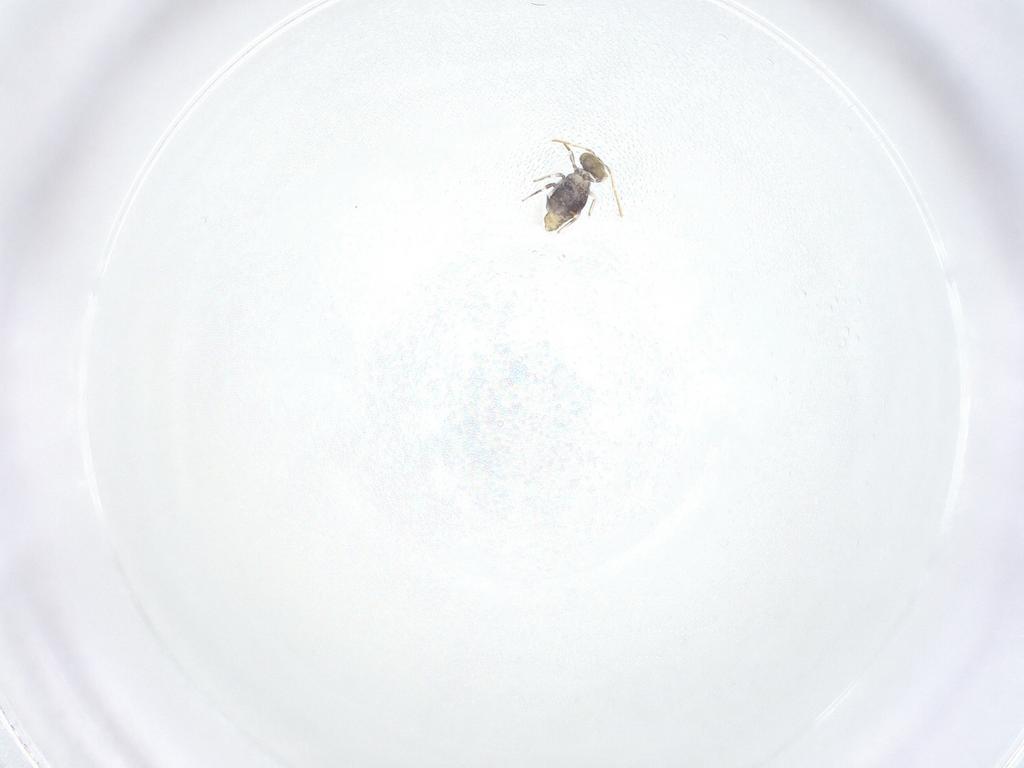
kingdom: Animalia
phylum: Arthropoda
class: Collembola
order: Symphypleona
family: Katiannidae
